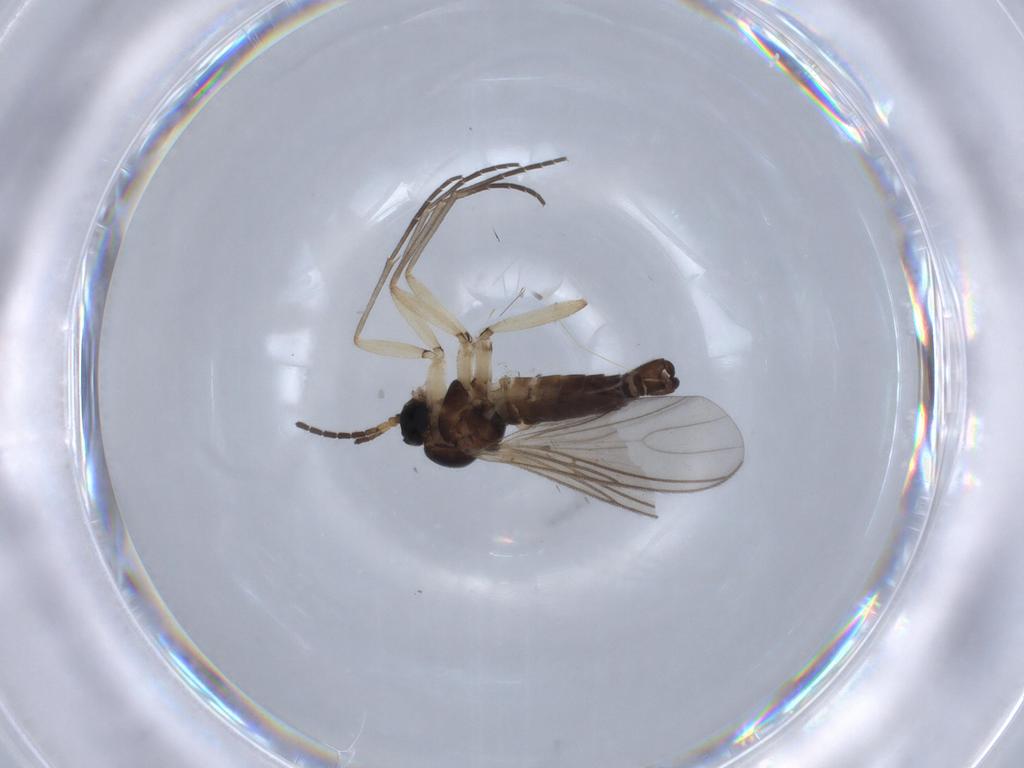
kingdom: Animalia
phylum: Arthropoda
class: Insecta
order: Diptera
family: Sciaridae
